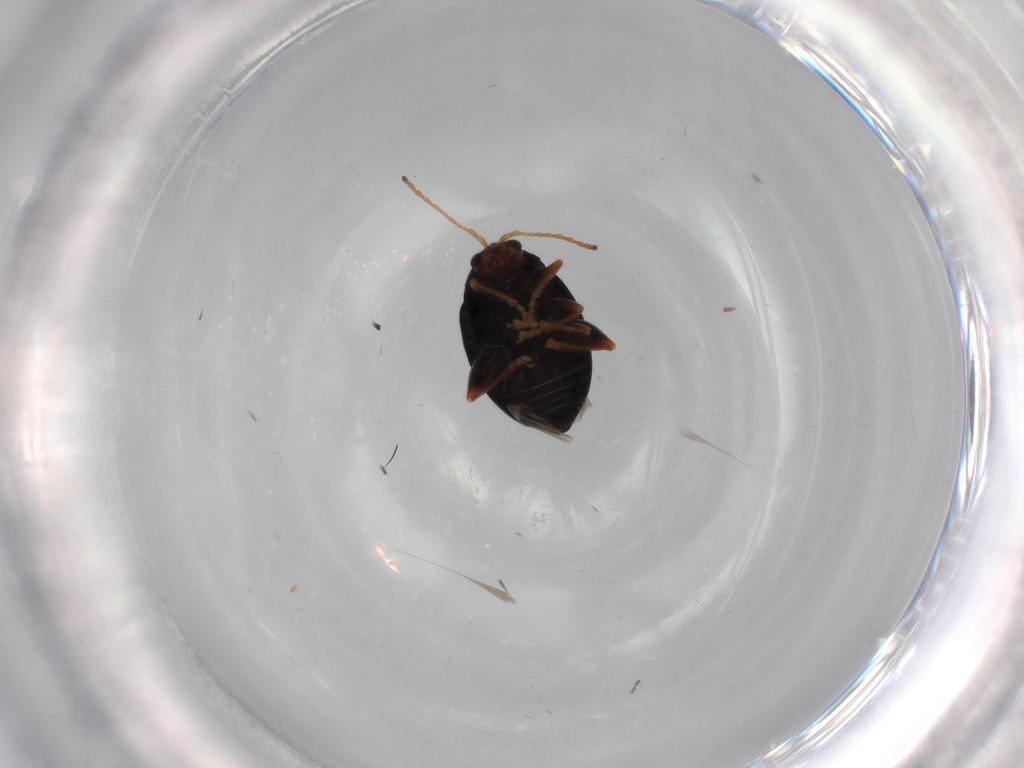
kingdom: Animalia
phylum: Arthropoda
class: Insecta
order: Coleoptera
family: Chrysomelidae
